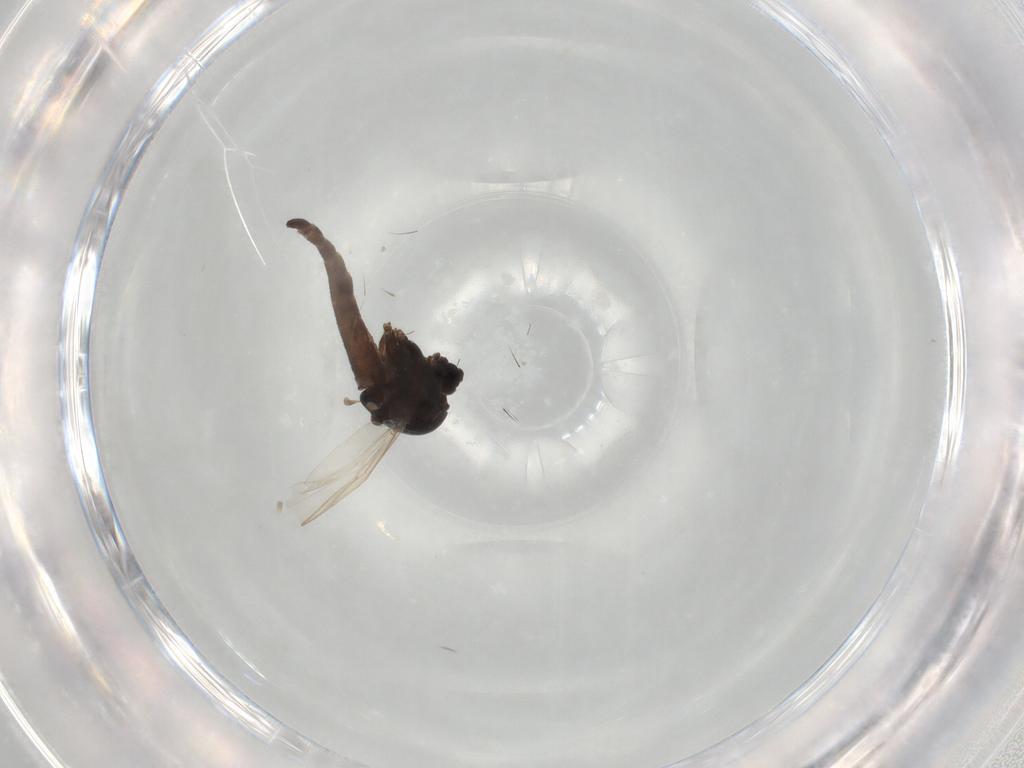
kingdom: Animalia
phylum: Arthropoda
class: Insecta
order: Diptera
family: Chironomidae
